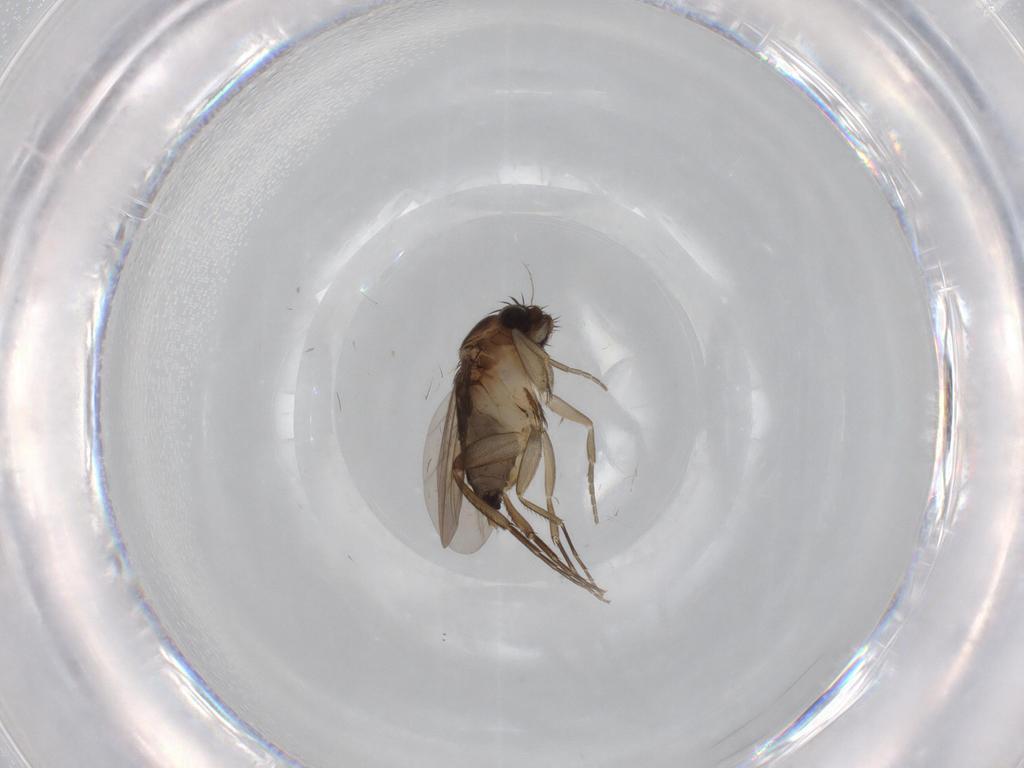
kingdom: Animalia
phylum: Arthropoda
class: Insecta
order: Diptera
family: Phoridae
